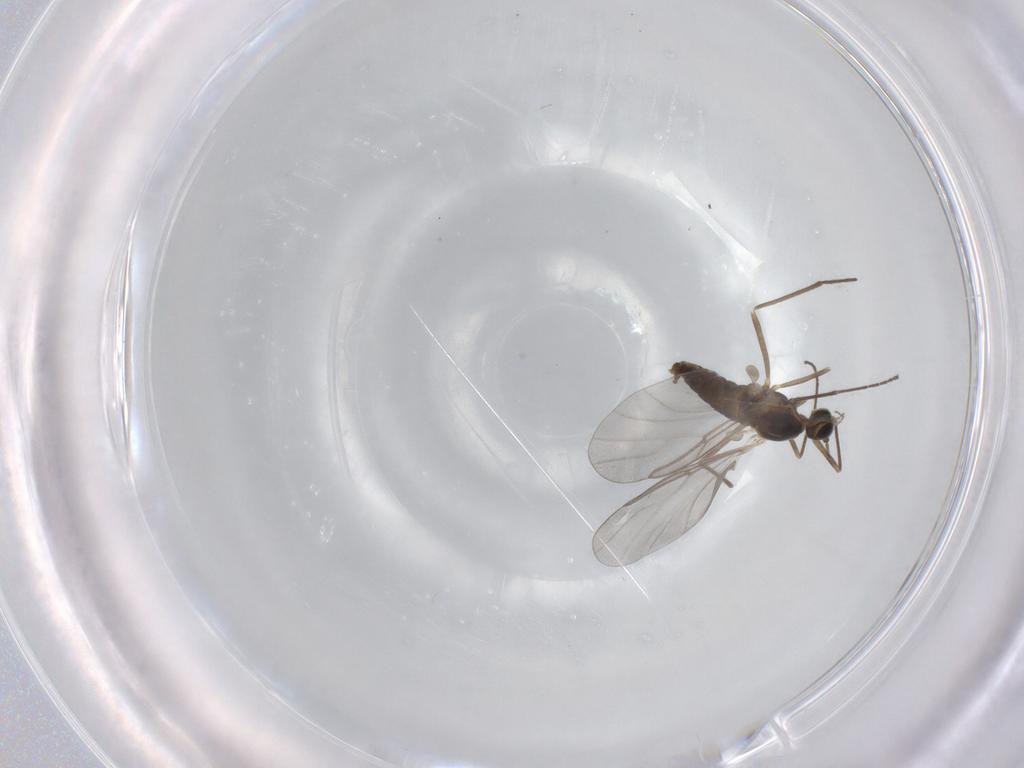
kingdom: Animalia
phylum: Arthropoda
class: Insecta
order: Diptera
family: Cecidomyiidae
